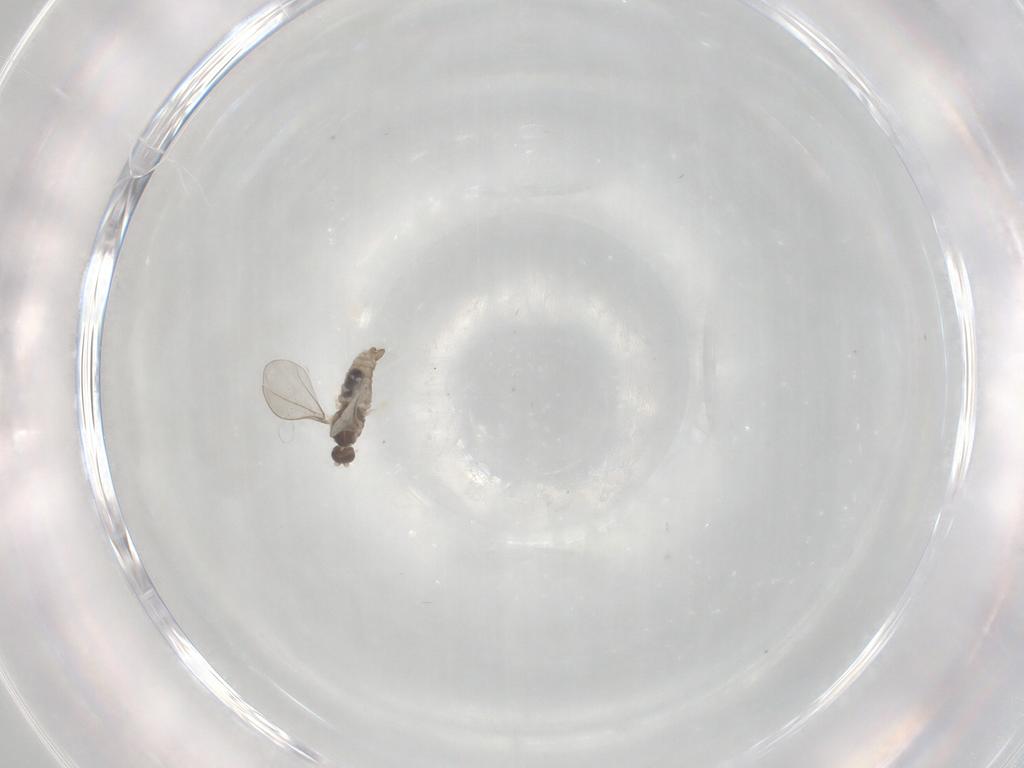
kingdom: Animalia
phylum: Arthropoda
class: Insecta
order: Diptera
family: Cecidomyiidae
